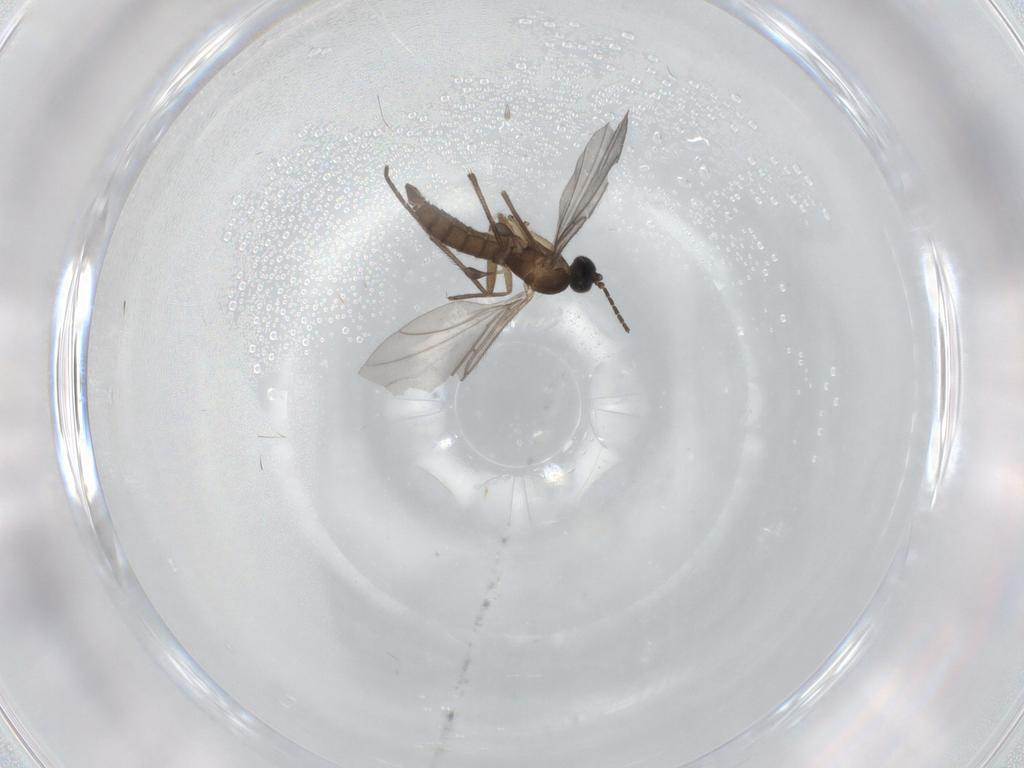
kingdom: Animalia
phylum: Arthropoda
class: Insecta
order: Diptera
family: Sciaridae
